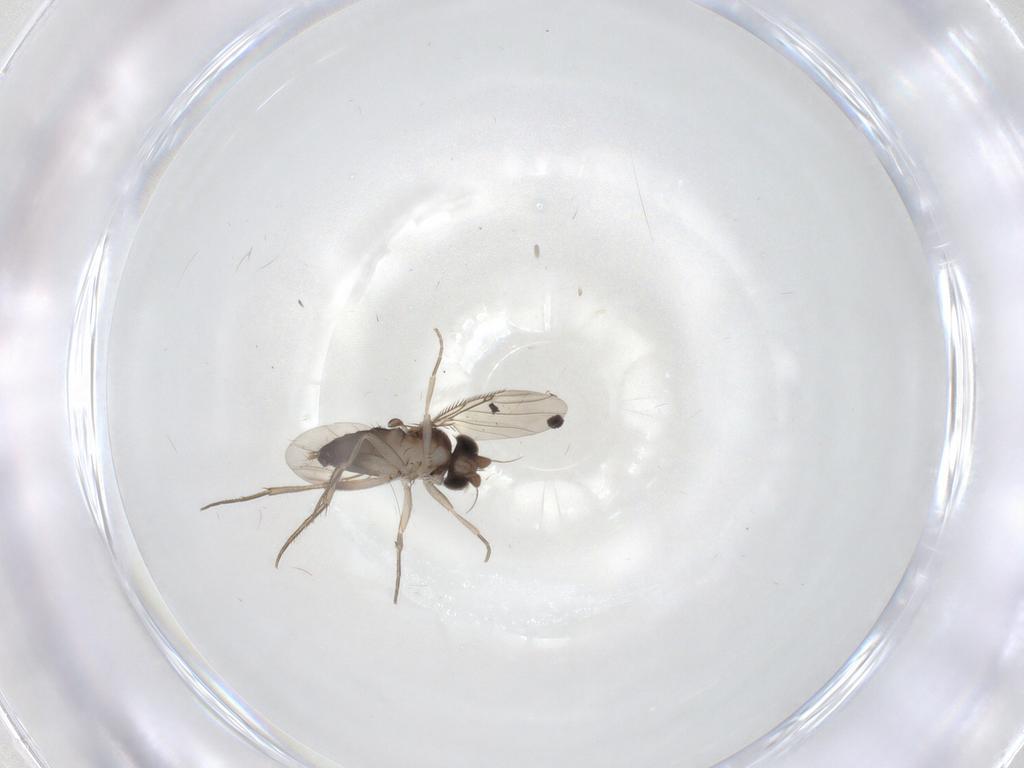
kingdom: Animalia
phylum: Arthropoda
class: Insecta
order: Diptera
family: Phoridae
